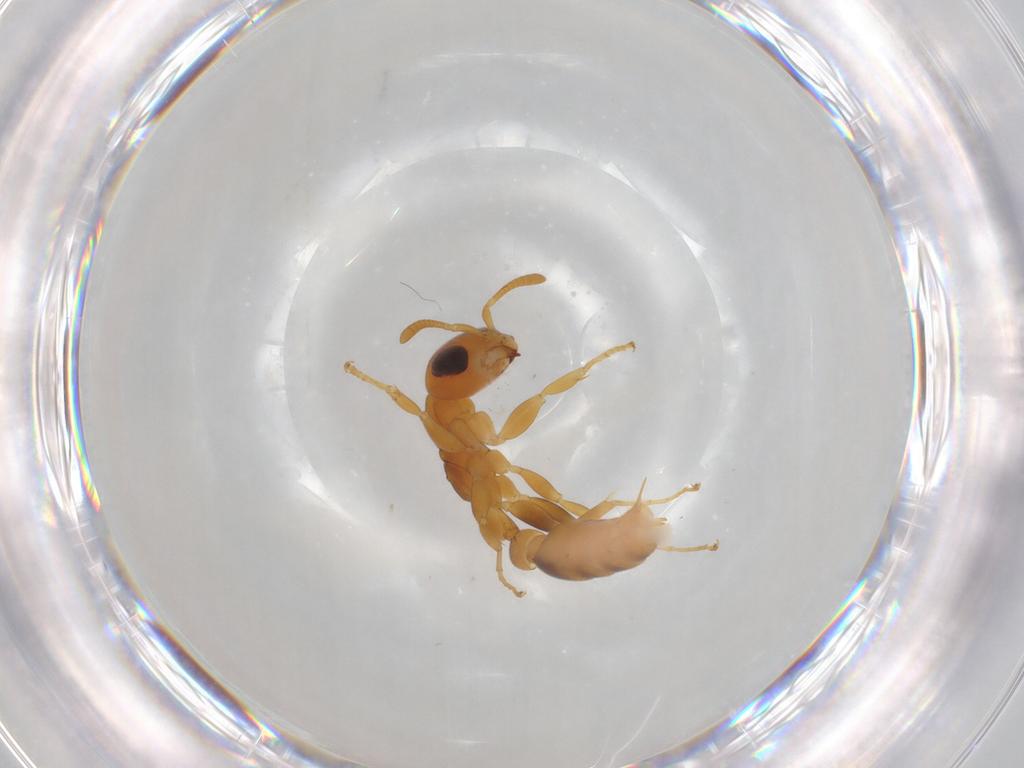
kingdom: Animalia
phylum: Arthropoda
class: Insecta
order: Hymenoptera
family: Formicidae
